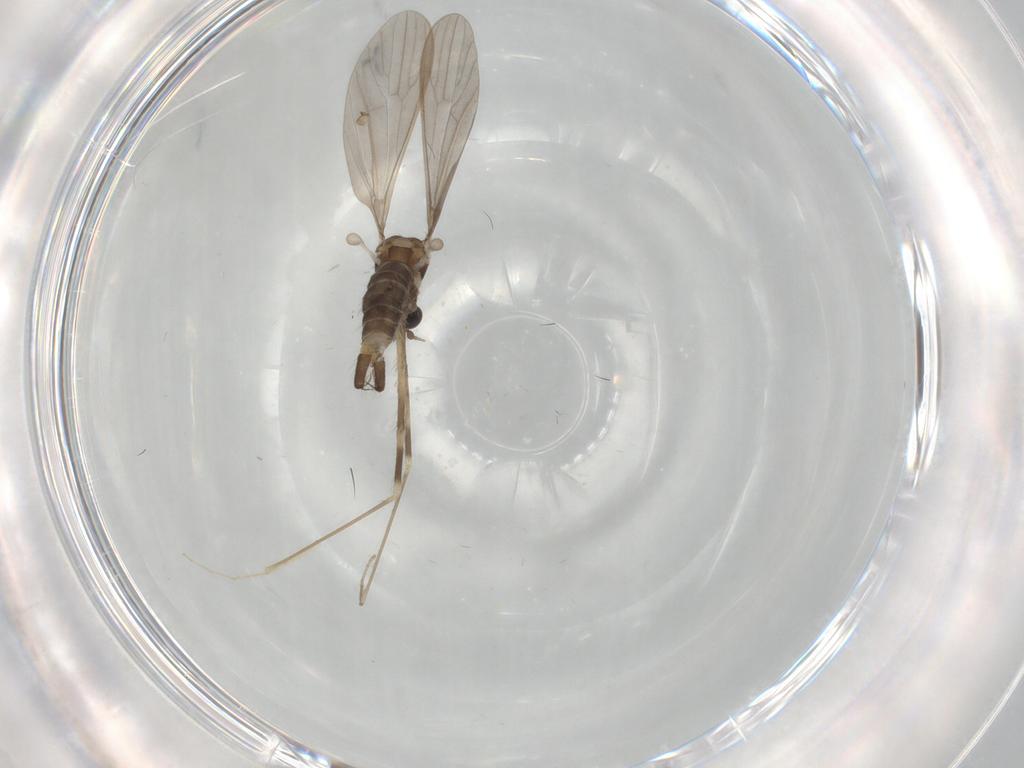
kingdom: Animalia
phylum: Arthropoda
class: Insecta
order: Diptera
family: Limoniidae
